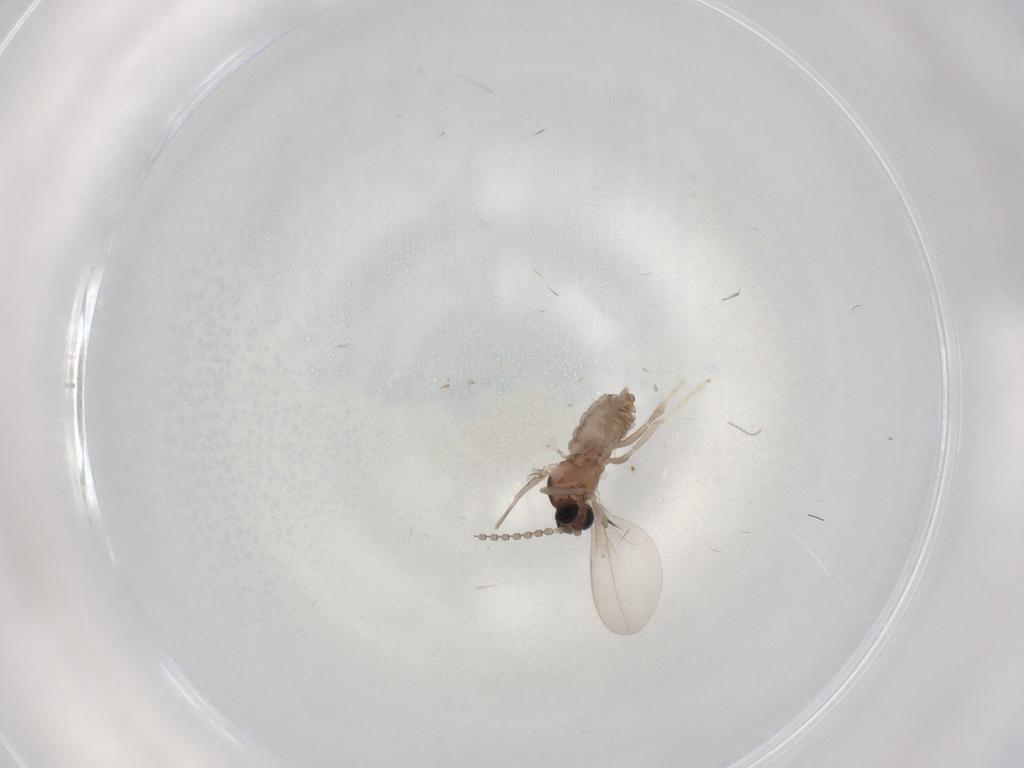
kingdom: Animalia
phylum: Arthropoda
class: Insecta
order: Diptera
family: Cecidomyiidae
